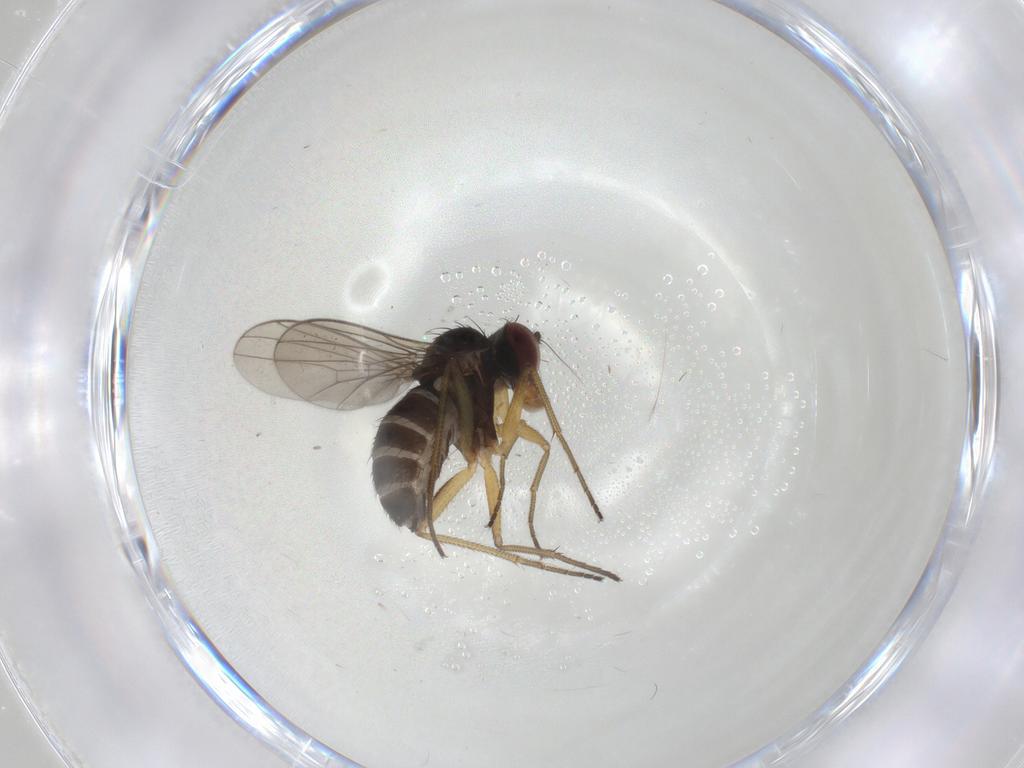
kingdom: Animalia
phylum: Arthropoda
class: Insecta
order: Diptera
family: Dolichopodidae
